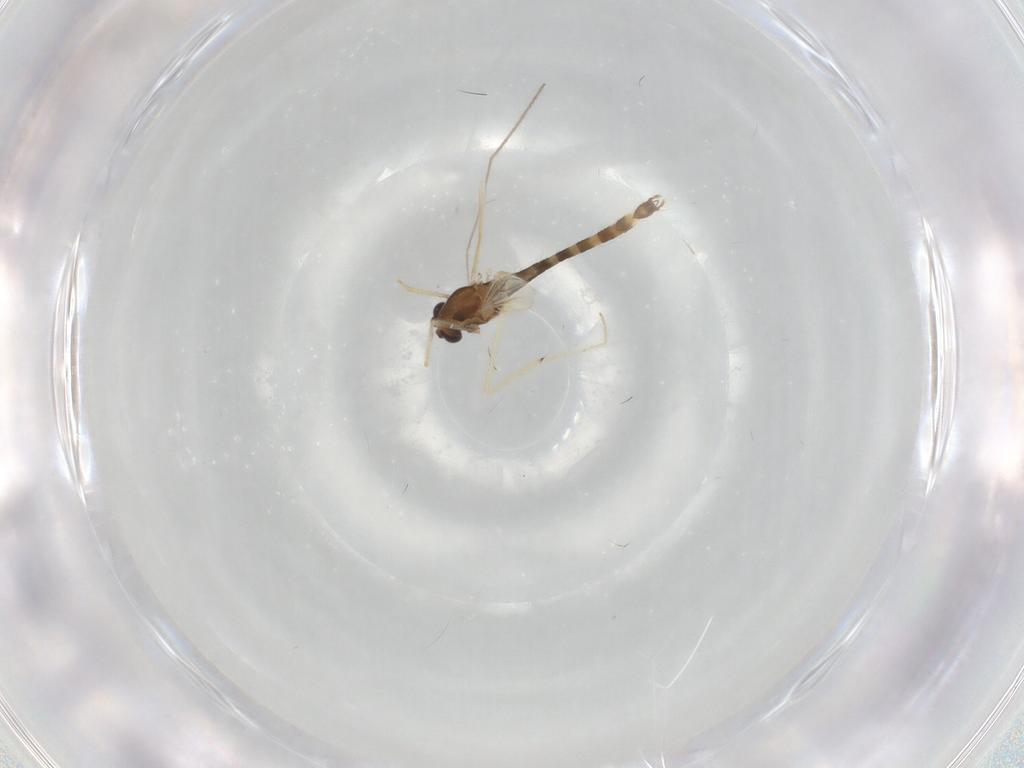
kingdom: Animalia
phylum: Arthropoda
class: Insecta
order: Diptera
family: Chironomidae
